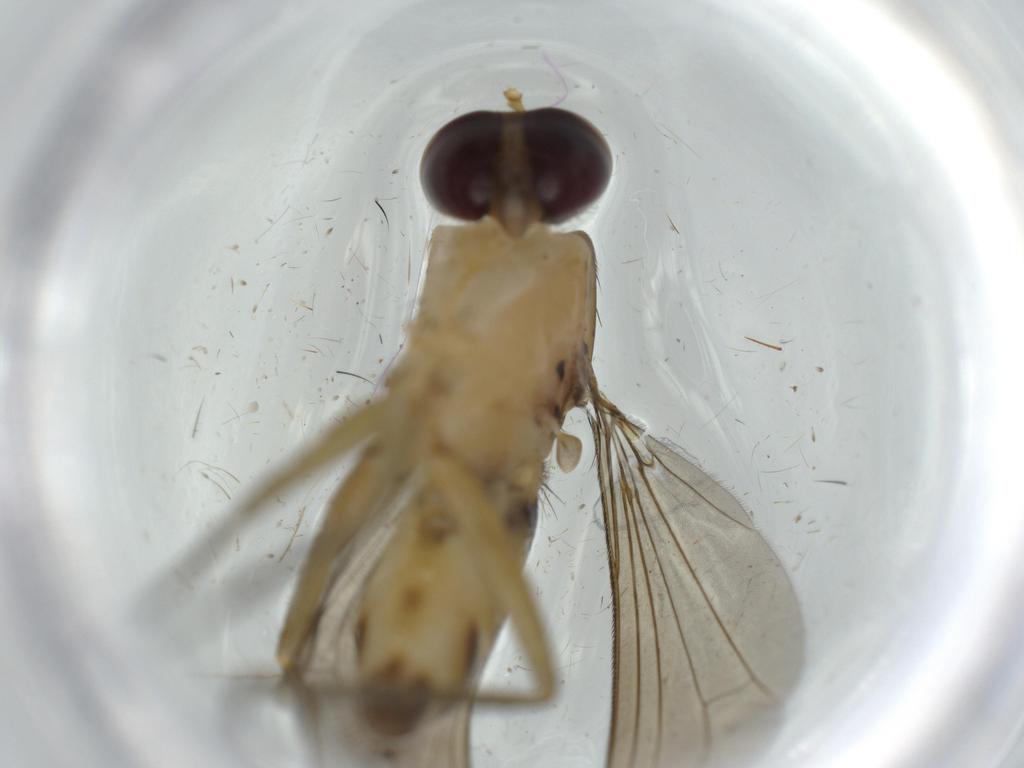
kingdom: Animalia
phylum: Arthropoda
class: Insecta
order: Diptera
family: Dolichopodidae
